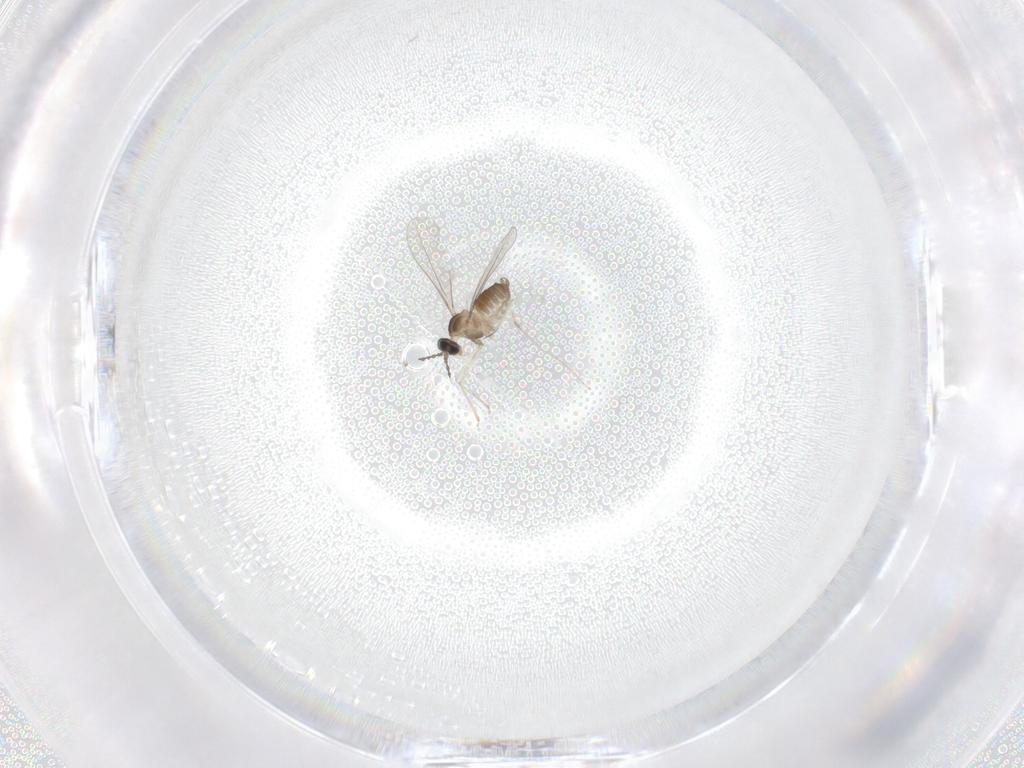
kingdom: Animalia
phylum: Arthropoda
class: Insecta
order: Diptera
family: Cecidomyiidae
